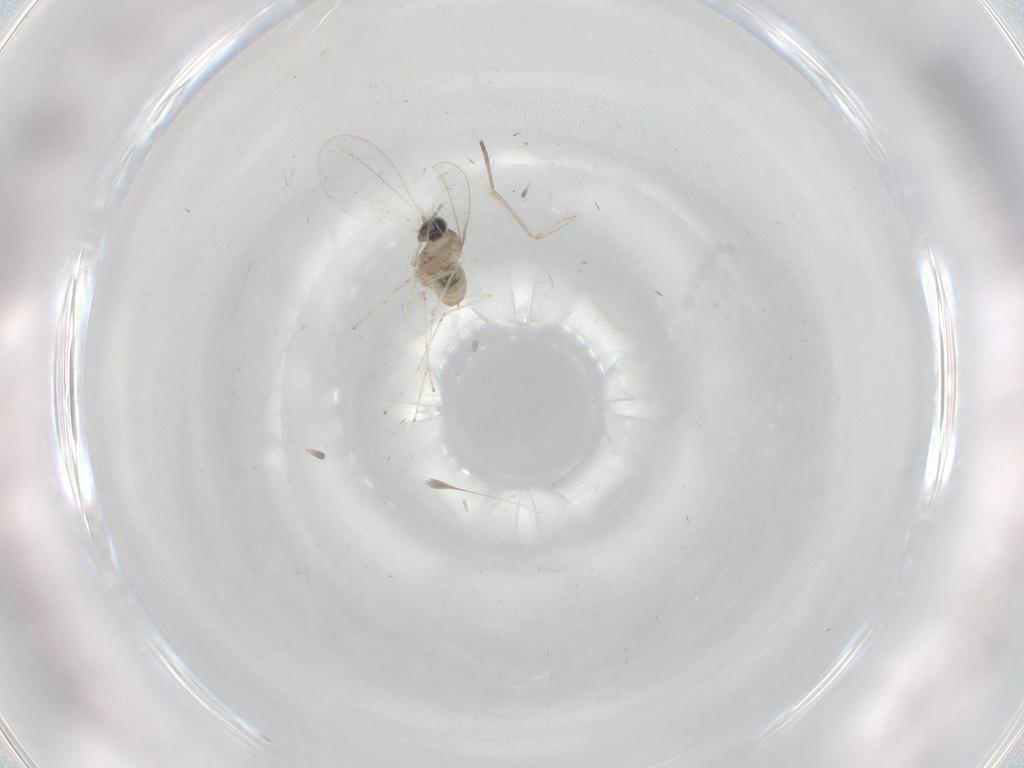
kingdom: Animalia
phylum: Arthropoda
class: Insecta
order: Diptera
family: Cecidomyiidae
